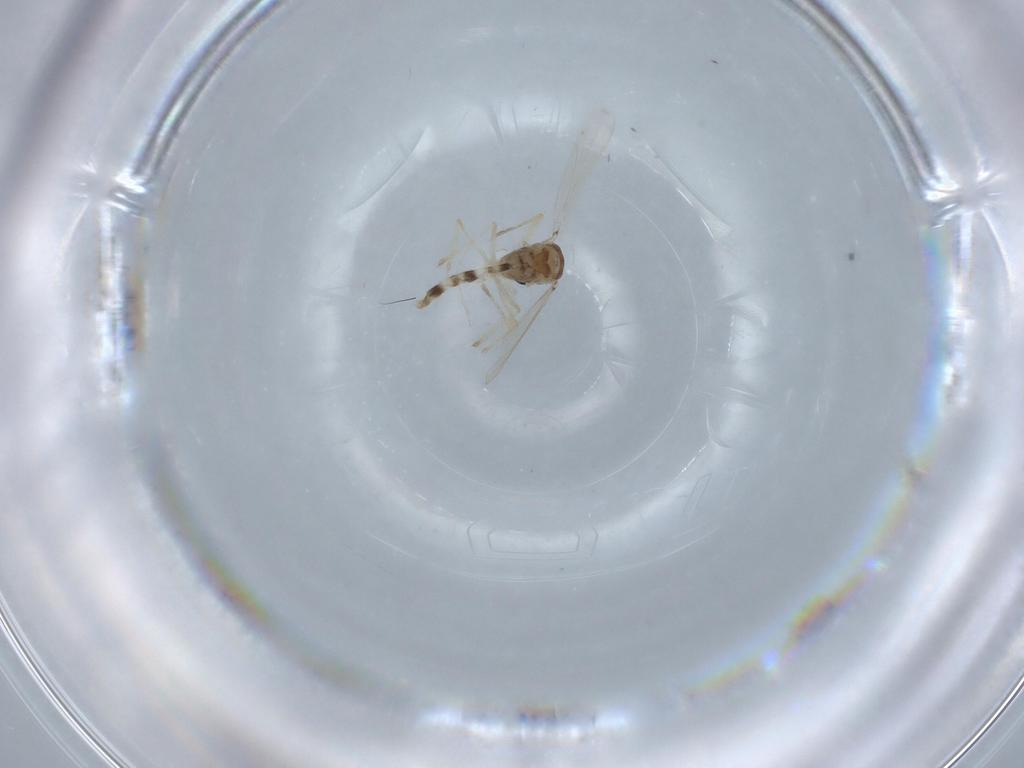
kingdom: Animalia
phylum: Arthropoda
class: Insecta
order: Diptera
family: Chironomidae
